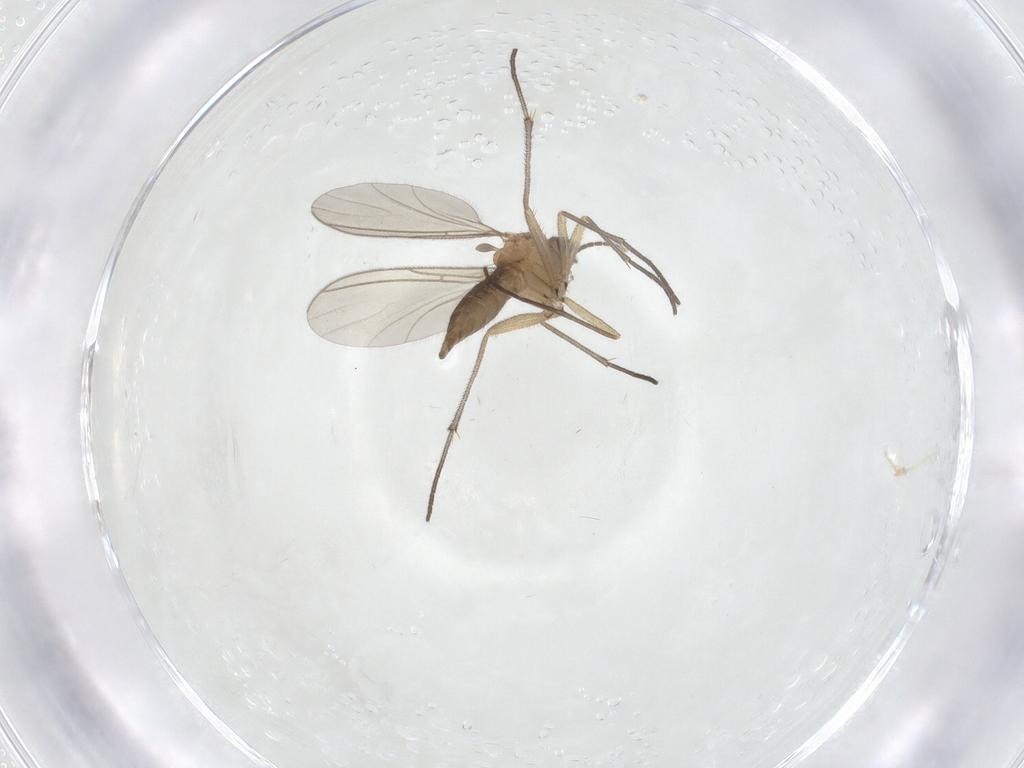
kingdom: Animalia
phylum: Arthropoda
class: Insecta
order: Diptera
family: Sciaridae
